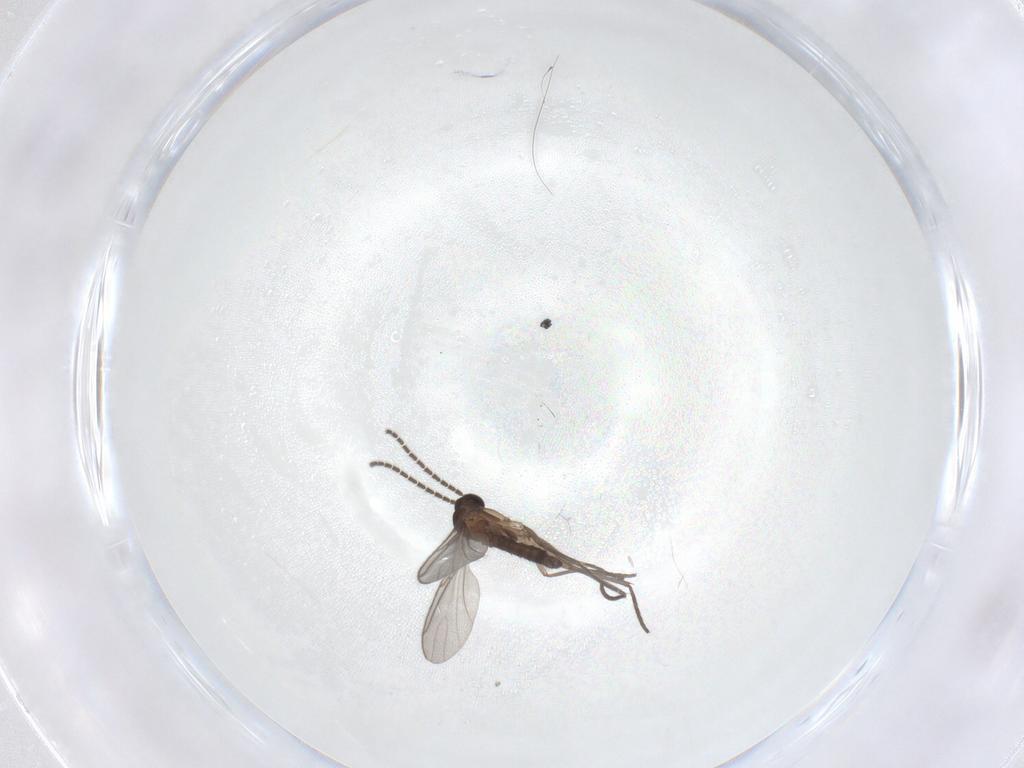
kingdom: Animalia
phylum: Arthropoda
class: Insecta
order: Diptera
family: Sciaridae
